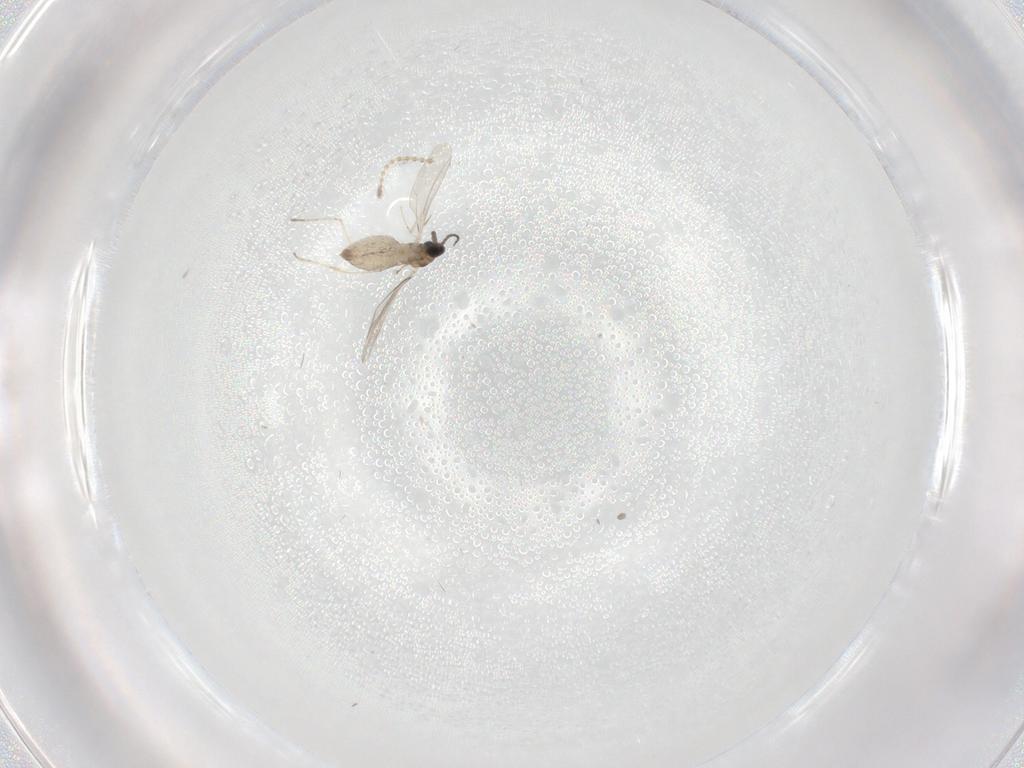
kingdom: Animalia
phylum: Arthropoda
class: Insecta
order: Diptera
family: Cecidomyiidae
